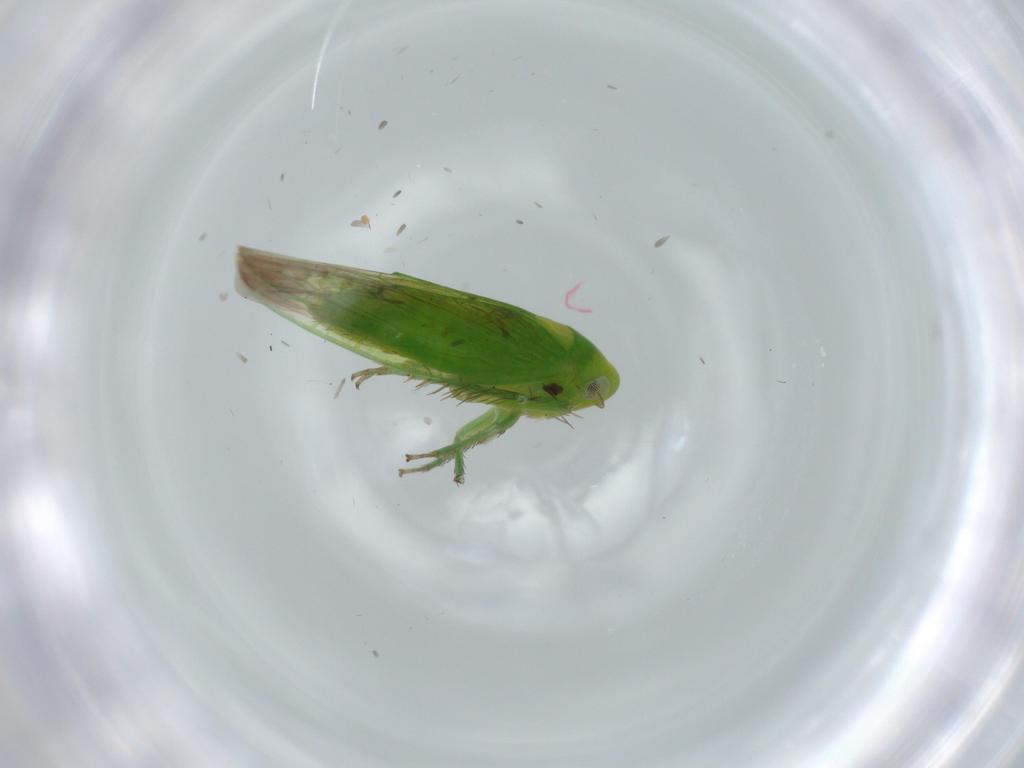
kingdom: Animalia
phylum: Arthropoda
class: Insecta
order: Hemiptera
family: Cicadellidae
